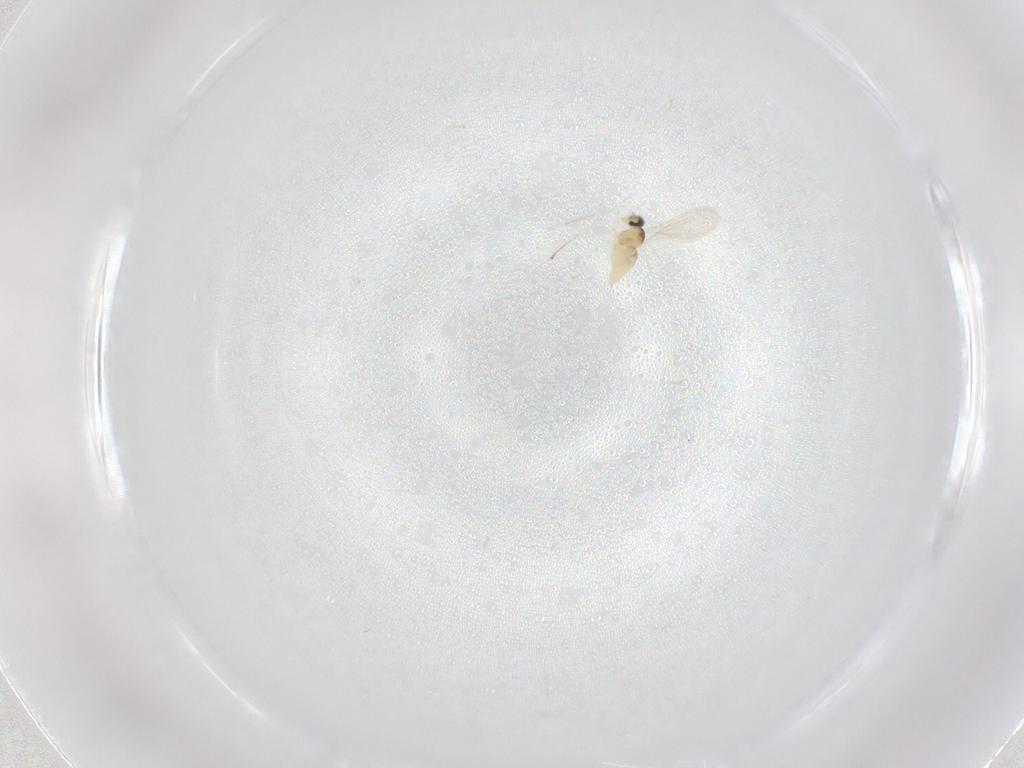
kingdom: Animalia
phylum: Arthropoda
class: Insecta
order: Diptera
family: Cecidomyiidae
